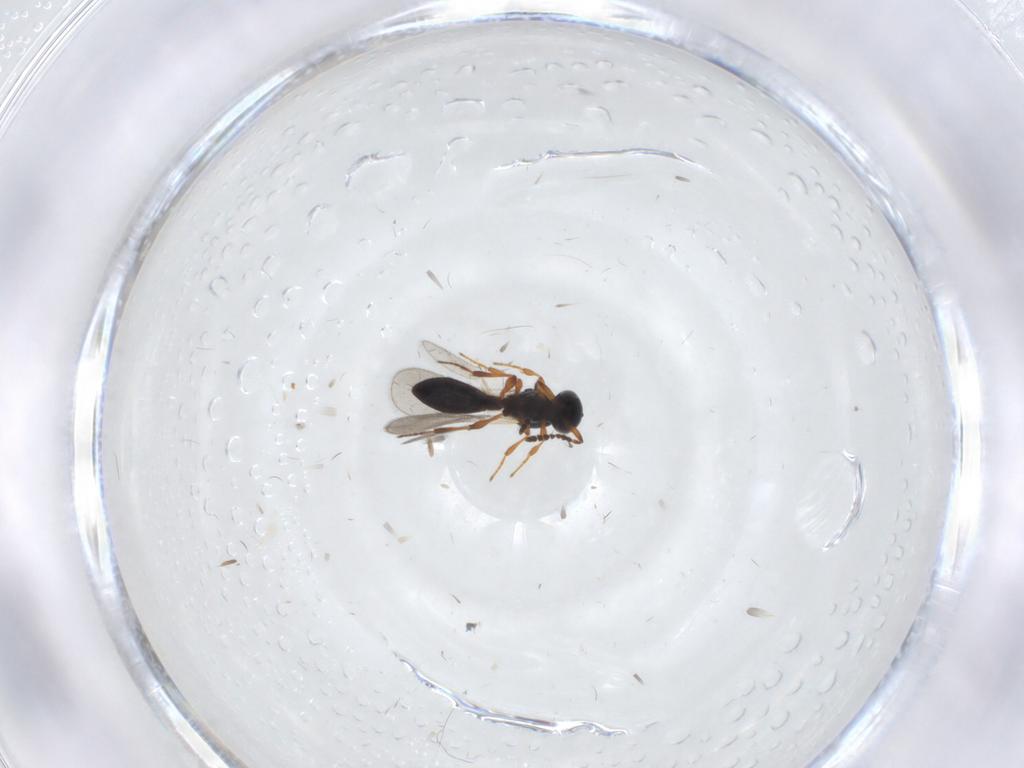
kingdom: Animalia
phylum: Arthropoda
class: Insecta
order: Hymenoptera
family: Platygastridae
